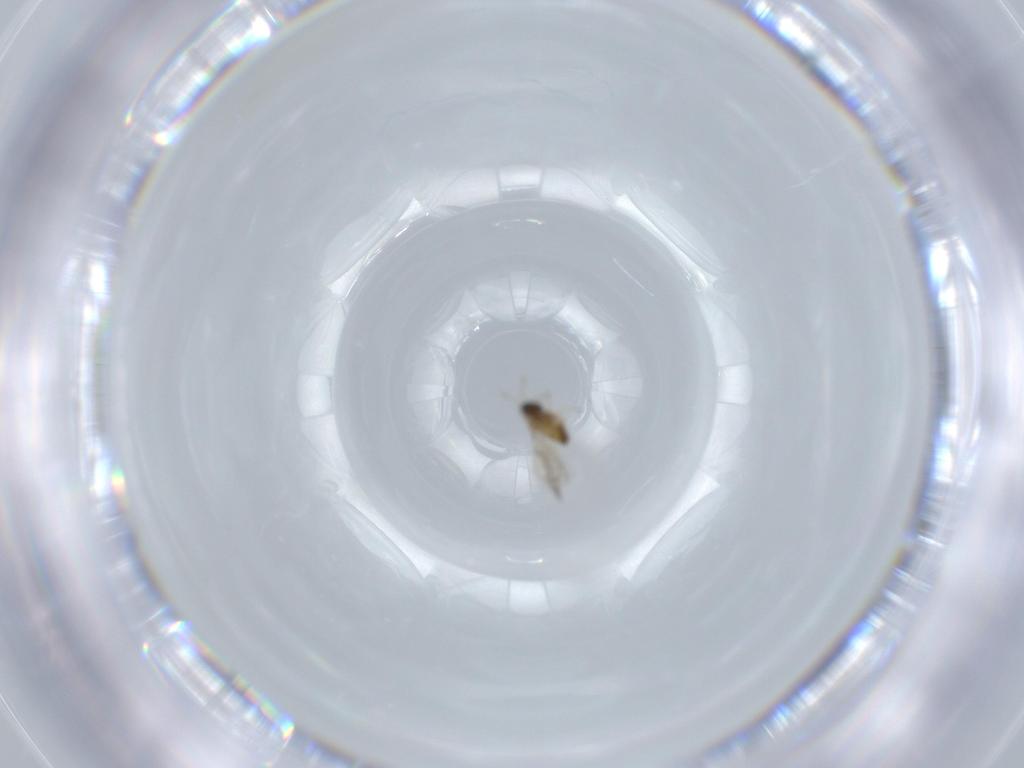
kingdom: Animalia
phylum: Arthropoda
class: Insecta
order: Hymenoptera
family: Trichogrammatidae
